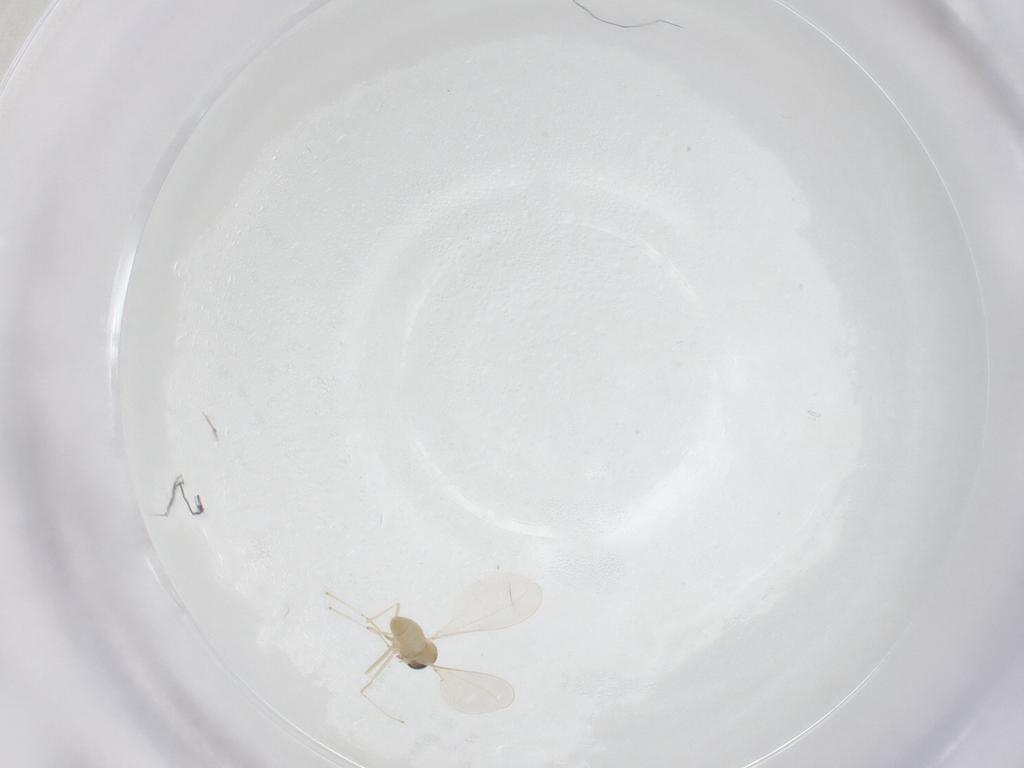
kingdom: Animalia
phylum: Arthropoda
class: Insecta
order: Diptera
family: Cecidomyiidae
